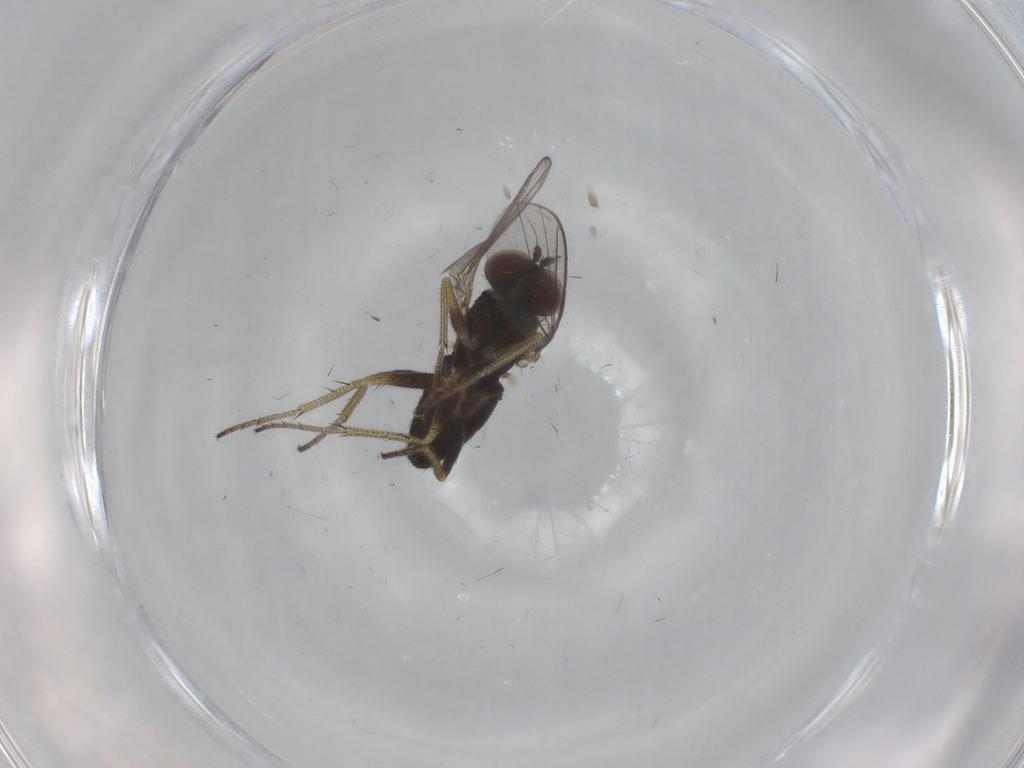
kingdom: Animalia
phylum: Arthropoda
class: Insecta
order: Diptera
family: Dolichopodidae
